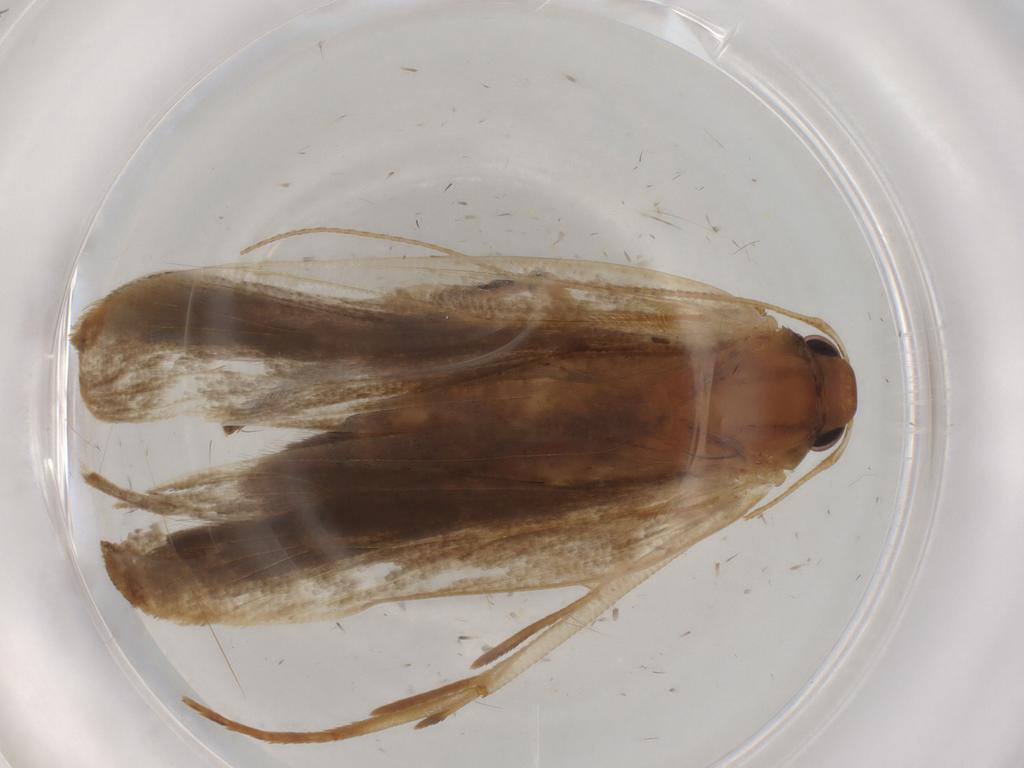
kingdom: Animalia
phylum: Arthropoda
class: Insecta
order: Lepidoptera
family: Gelechiidae
